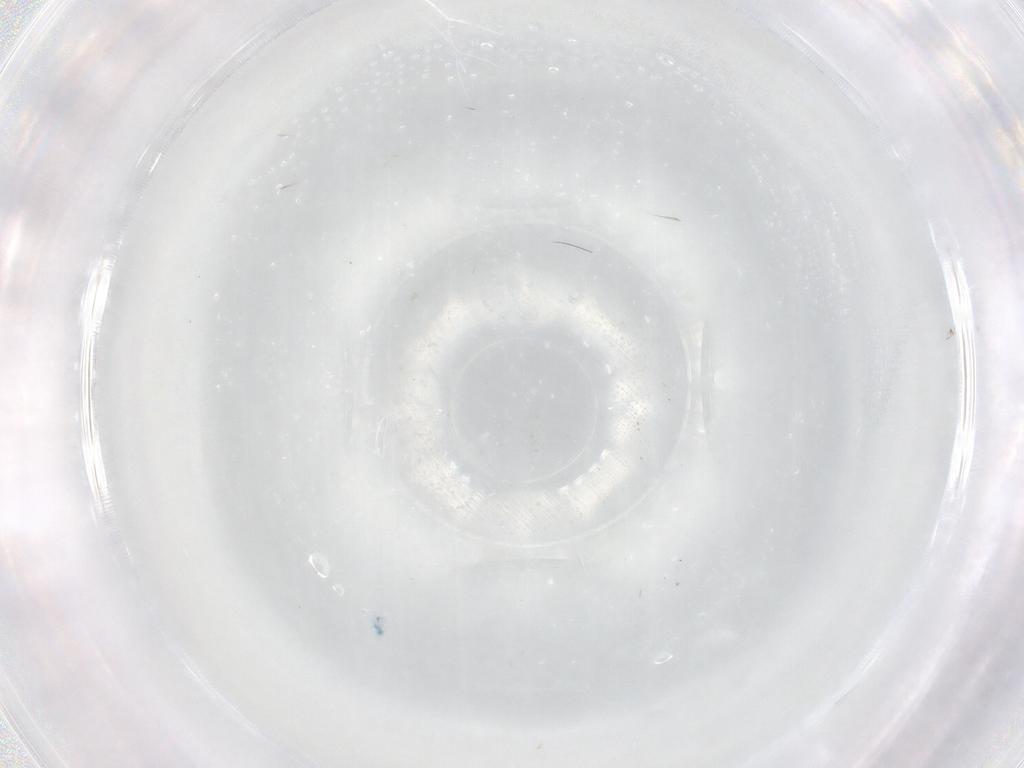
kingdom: Animalia
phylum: Arthropoda
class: Insecta
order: Diptera
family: Cecidomyiidae
